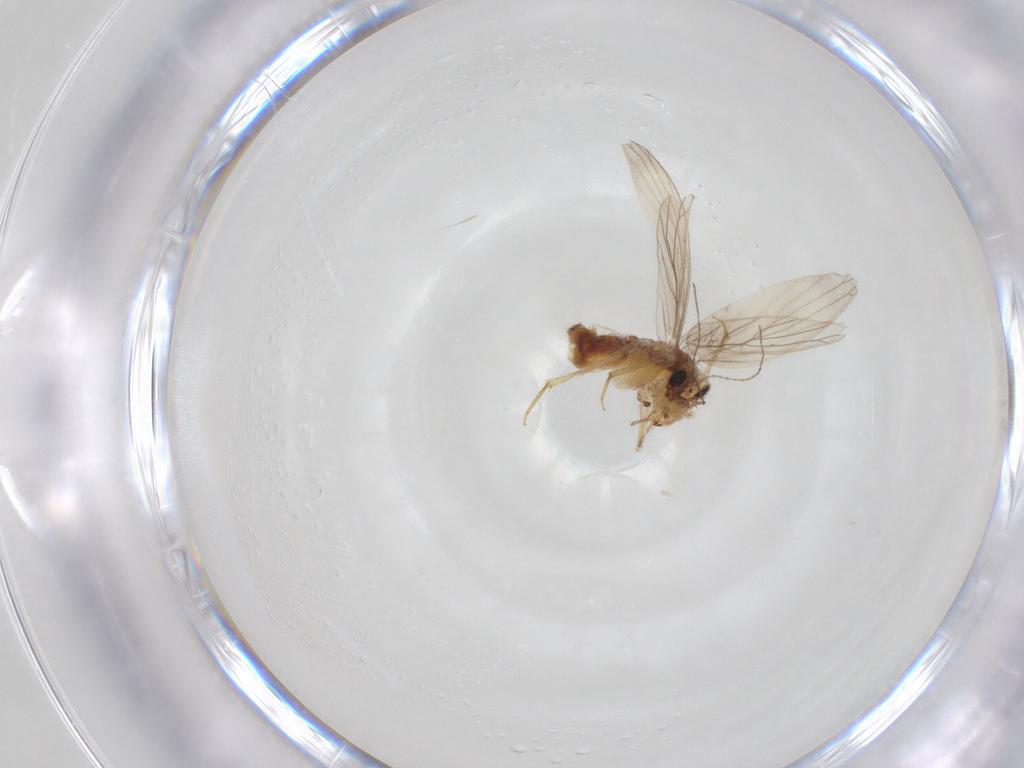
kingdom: Animalia
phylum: Arthropoda
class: Insecta
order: Psocodea
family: Lepidopsocidae
